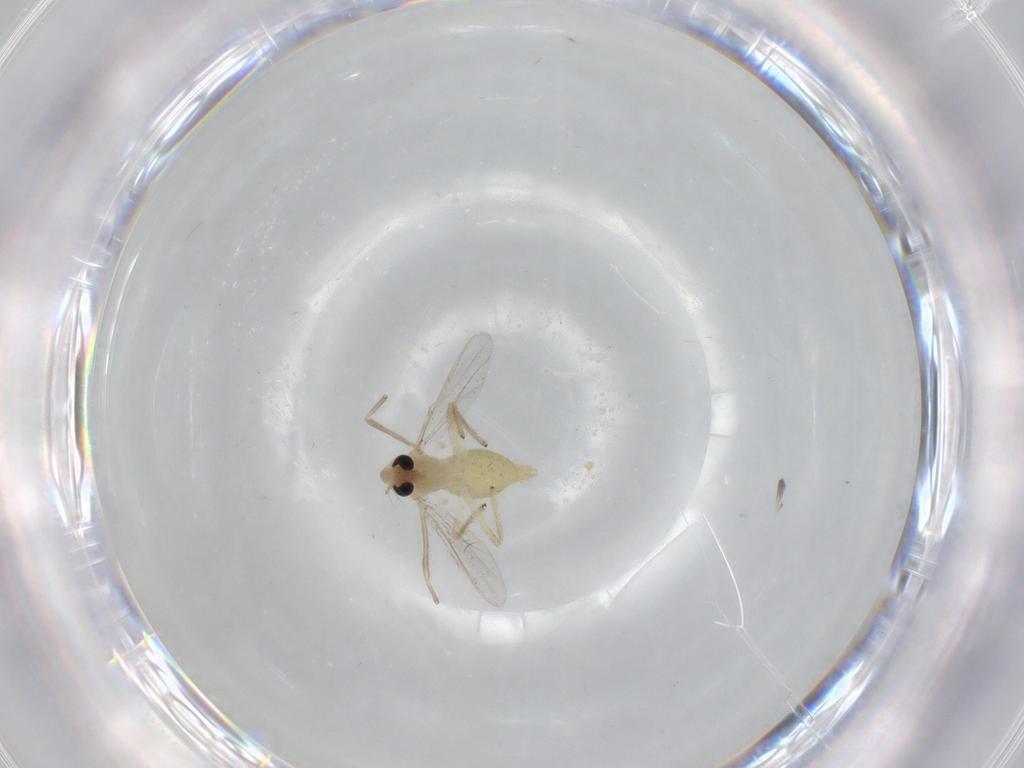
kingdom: Animalia
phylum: Arthropoda
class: Insecta
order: Diptera
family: Chironomidae
